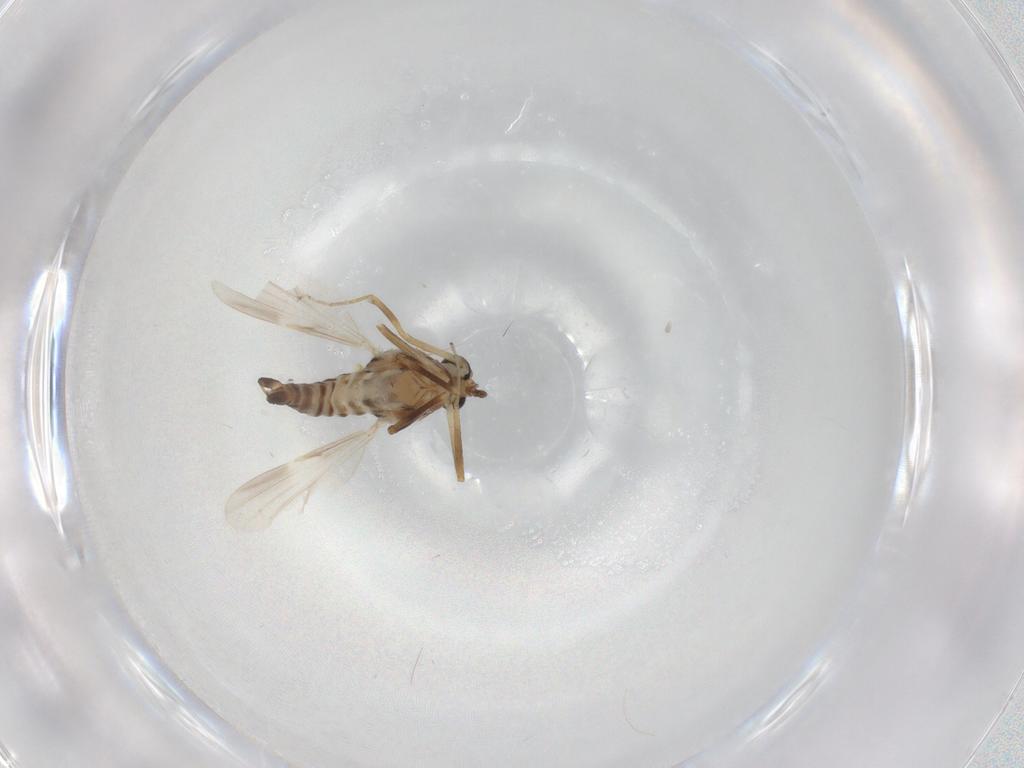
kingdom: Animalia
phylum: Arthropoda
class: Insecta
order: Diptera
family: Ceratopogonidae
